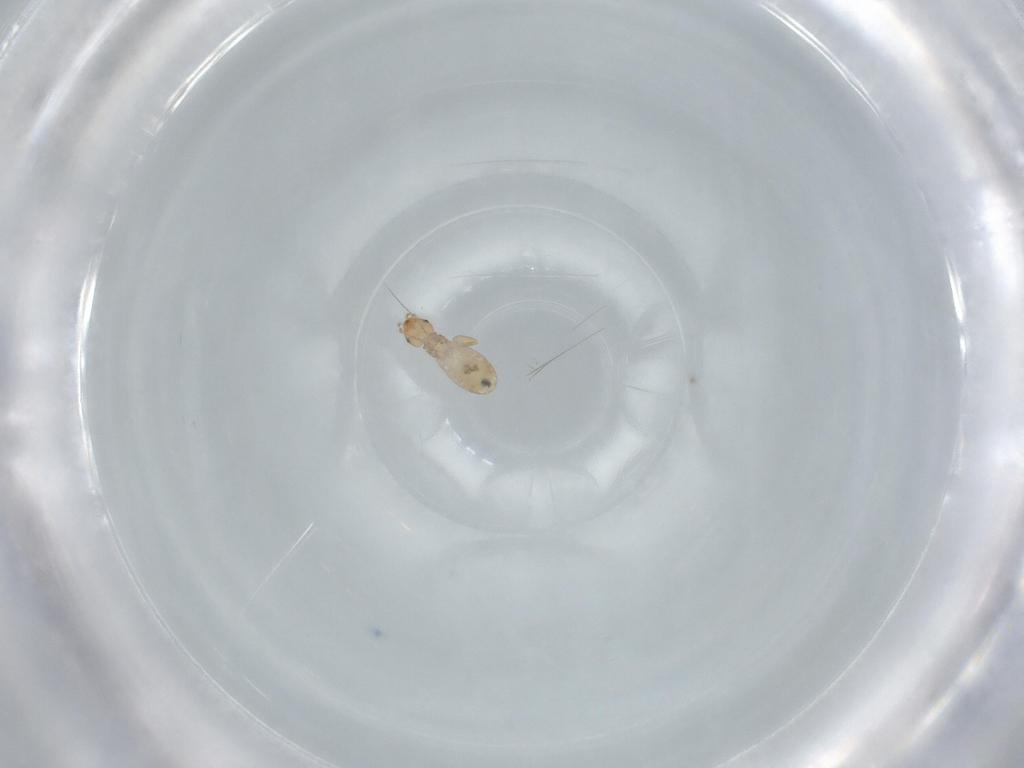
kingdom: Animalia
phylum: Arthropoda
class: Insecta
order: Psocodea
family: Liposcelididae
